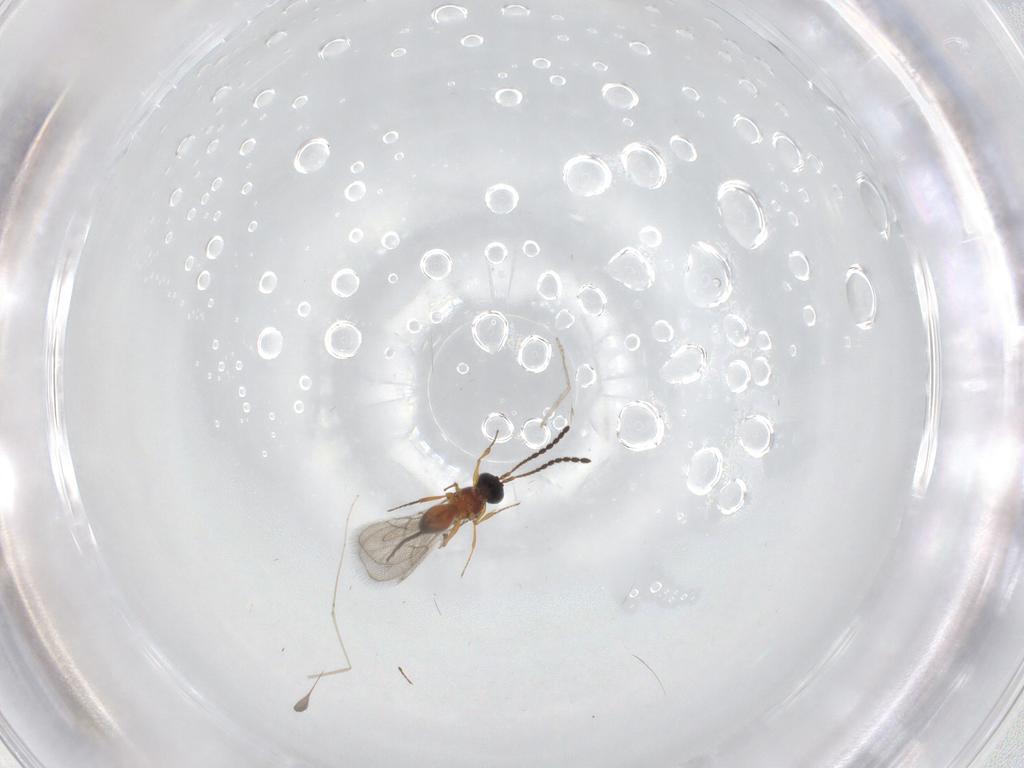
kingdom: Animalia
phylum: Arthropoda
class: Insecta
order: Hymenoptera
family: Figitidae
